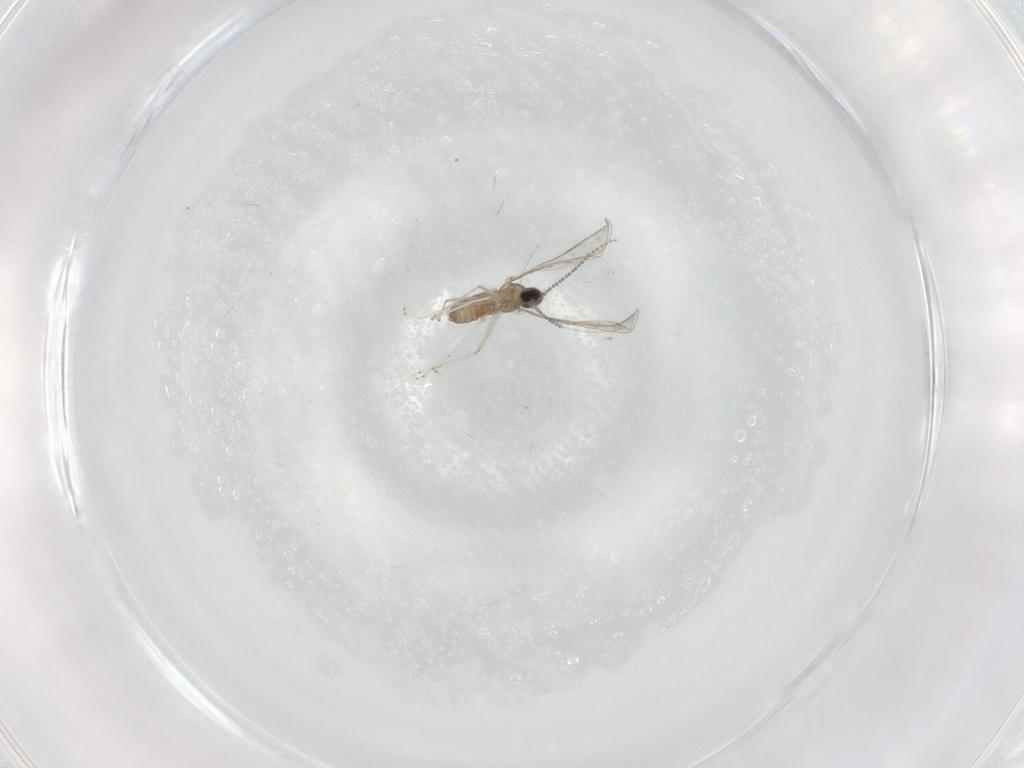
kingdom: Animalia
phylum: Arthropoda
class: Insecta
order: Diptera
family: Cecidomyiidae
